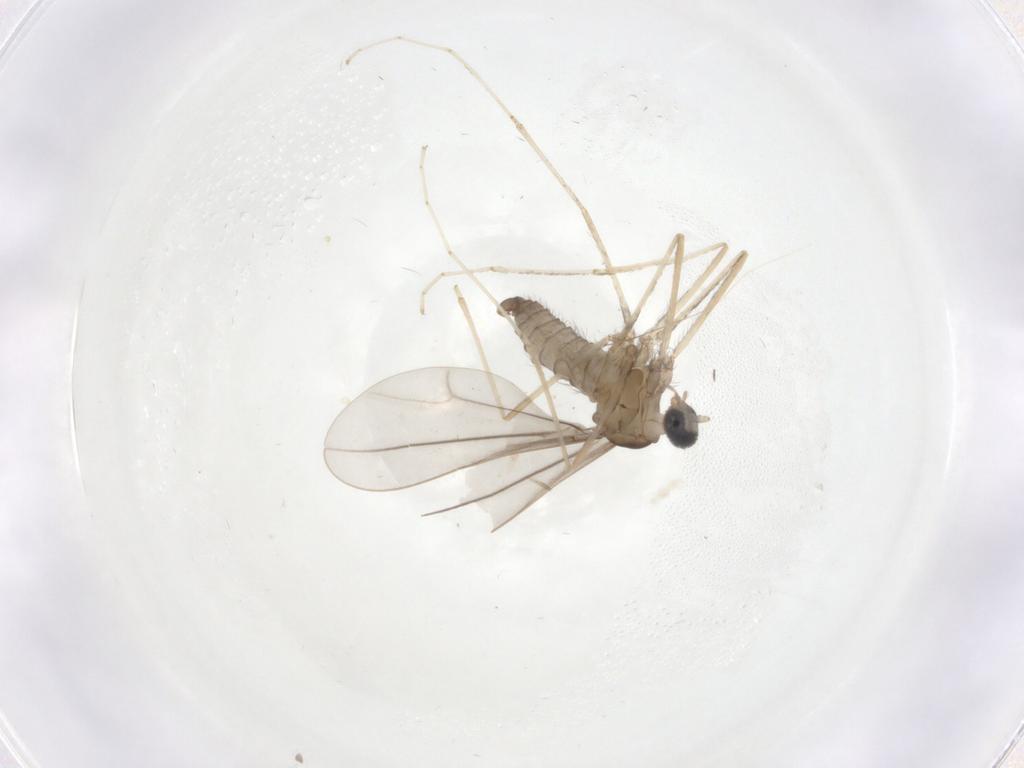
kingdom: Animalia
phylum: Arthropoda
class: Insecta
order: Diptera
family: Cecidomyiidae
